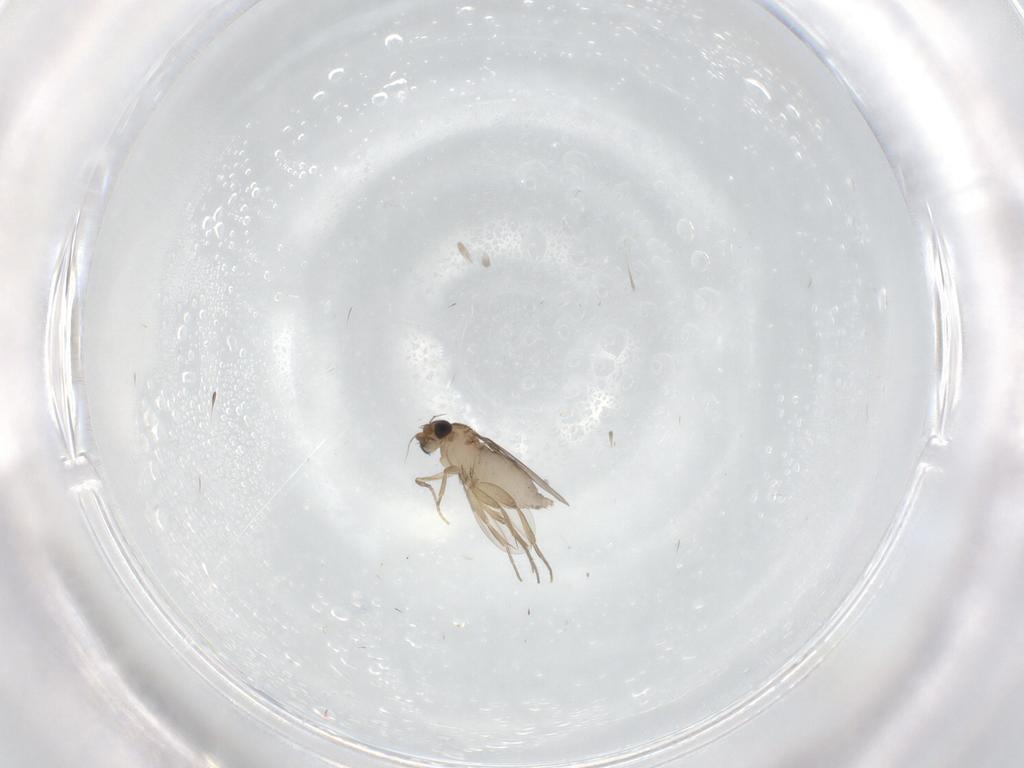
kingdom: Animalia
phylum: Arthropoda
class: Insecta
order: Diptera
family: Phoridae
